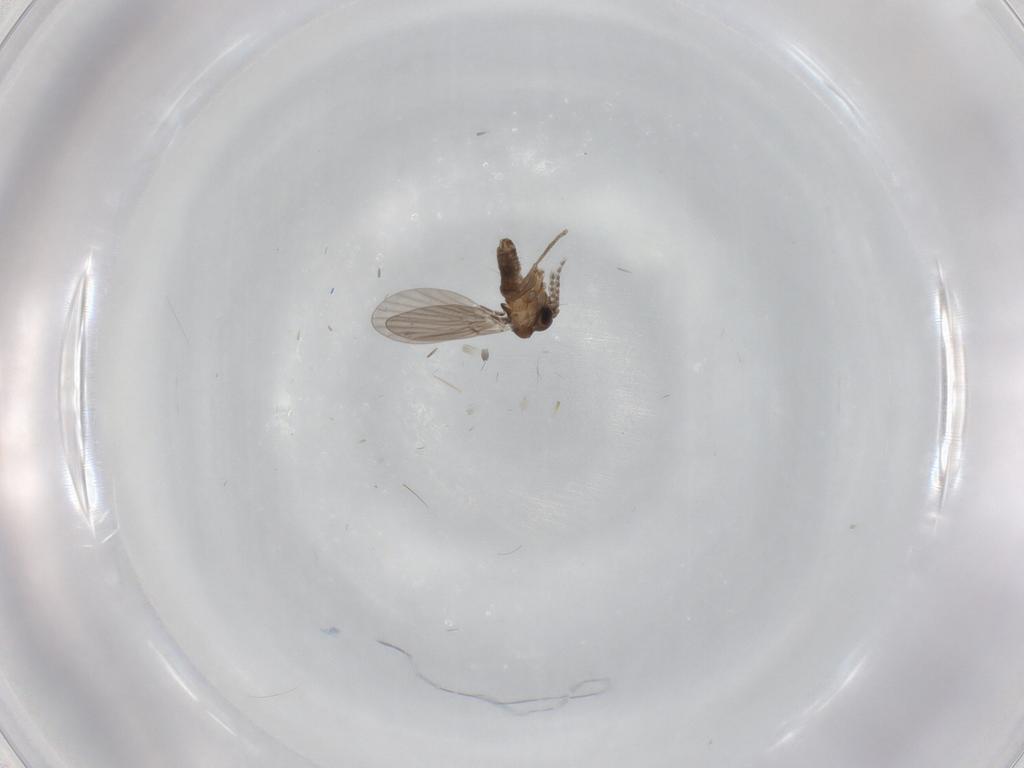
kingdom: Animalia
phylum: Arthropoda
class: Insecta
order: Diptera
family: Psychodidae
